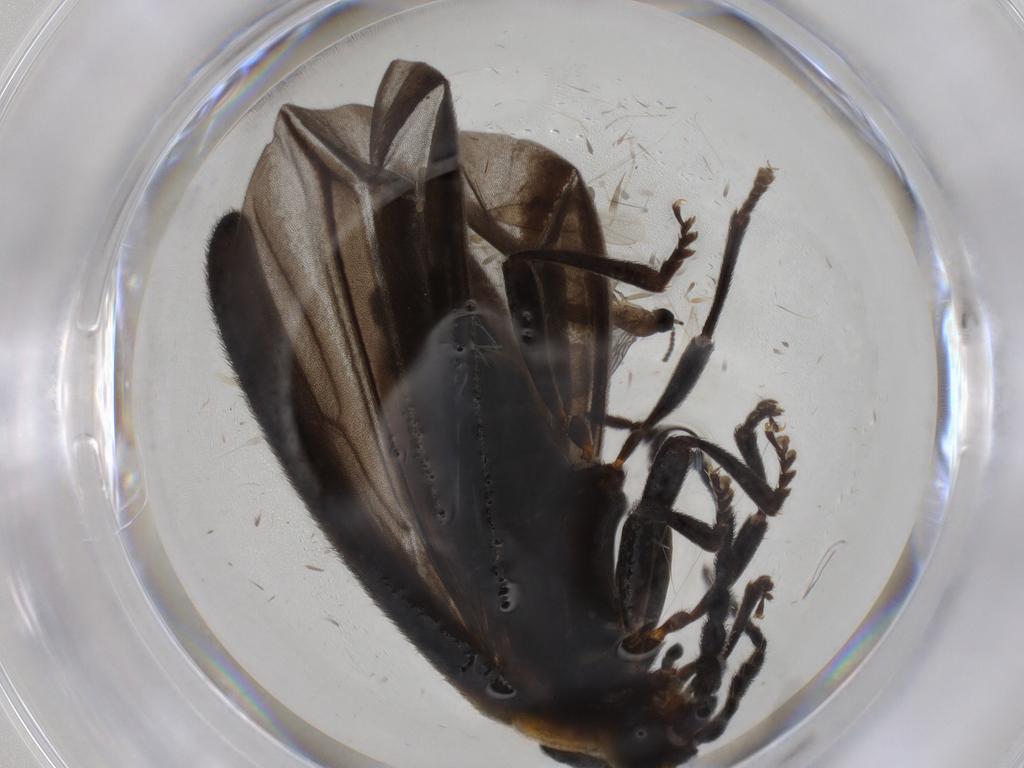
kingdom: Animalia
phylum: Arthropoda
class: Insecta
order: Coleoptera
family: Lycidae
